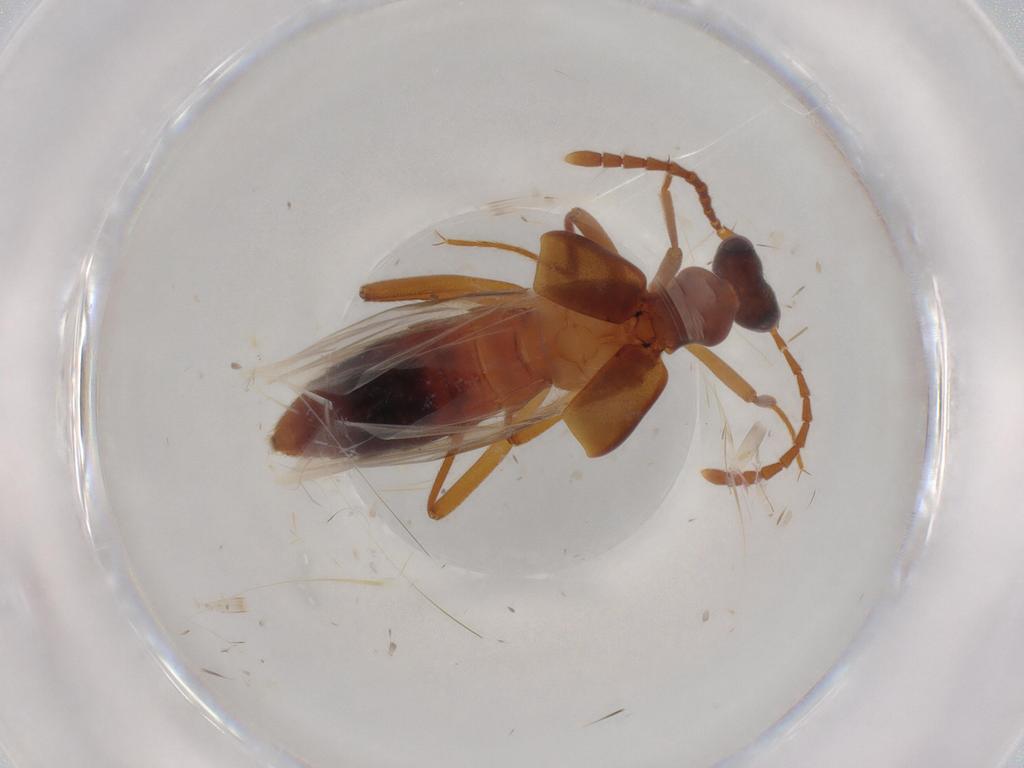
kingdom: Animalia
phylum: Arthropoda
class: Insecta
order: Coleoptera
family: Staphylinidae
